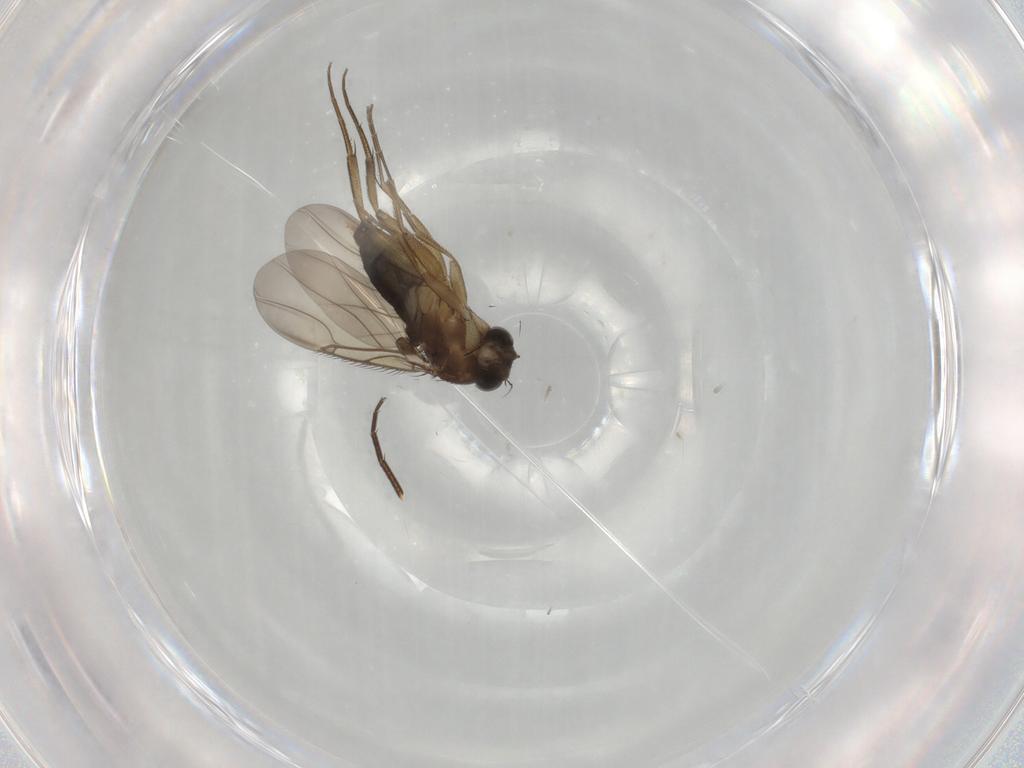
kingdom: Animalia
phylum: Arthropoda
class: Insecta
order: Diptera
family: Phoridae
